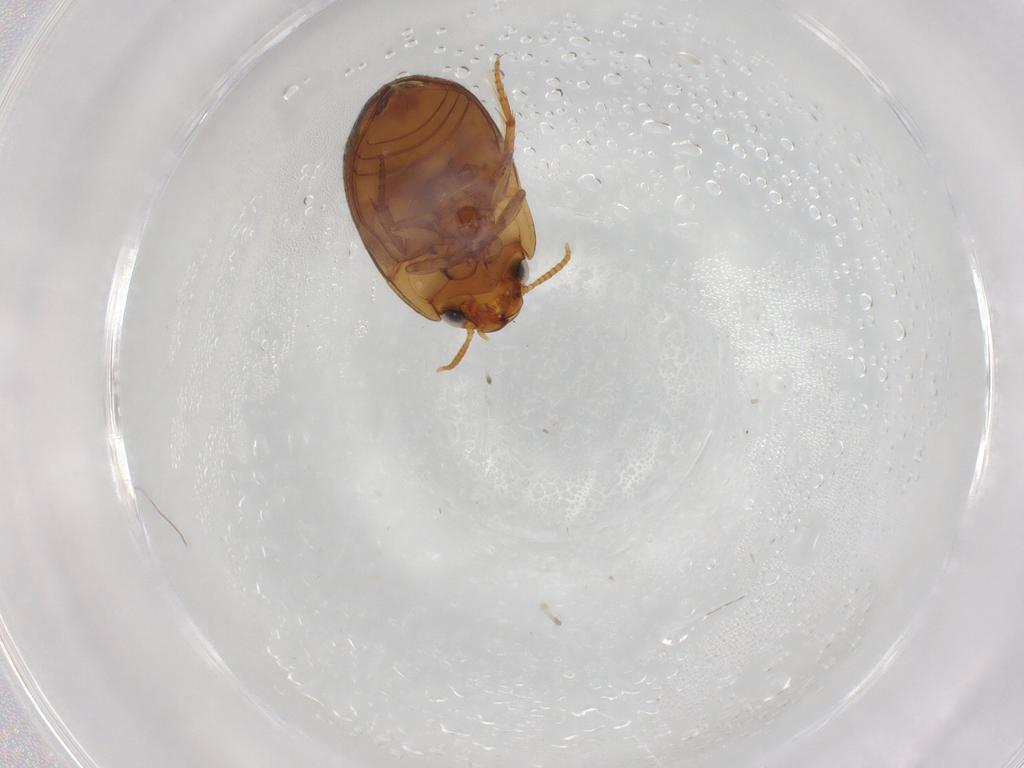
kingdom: Animalia
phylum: Arthropoda
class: Insecta
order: Coleoptera
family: Noteridae
